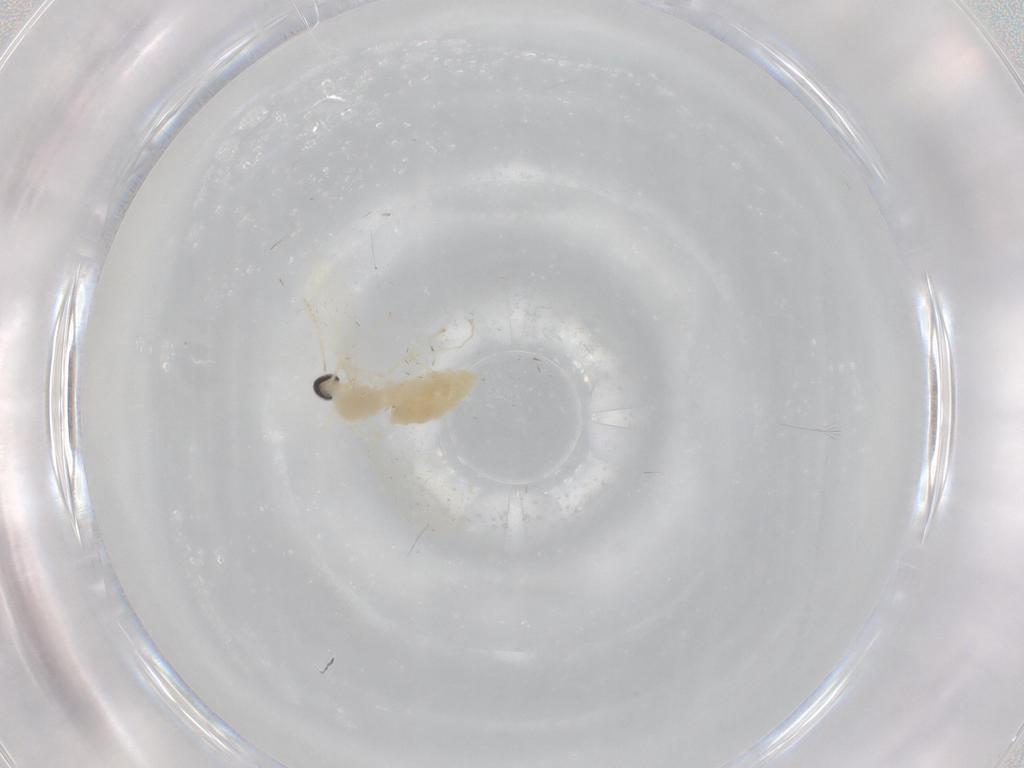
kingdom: Animalia
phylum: Arthropoda
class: Insecta
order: Diptera
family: Cecidomyiidae
